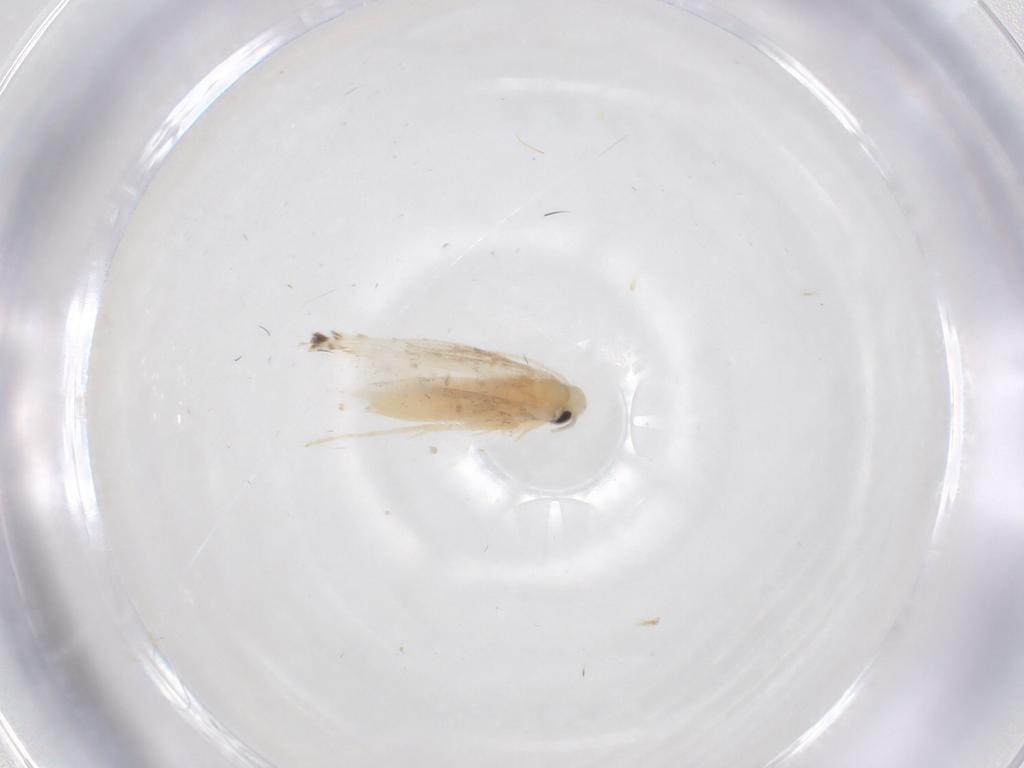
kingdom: Animalia
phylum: Arthropoda
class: Insecta
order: Lepidoptera
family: Gracillariidae
